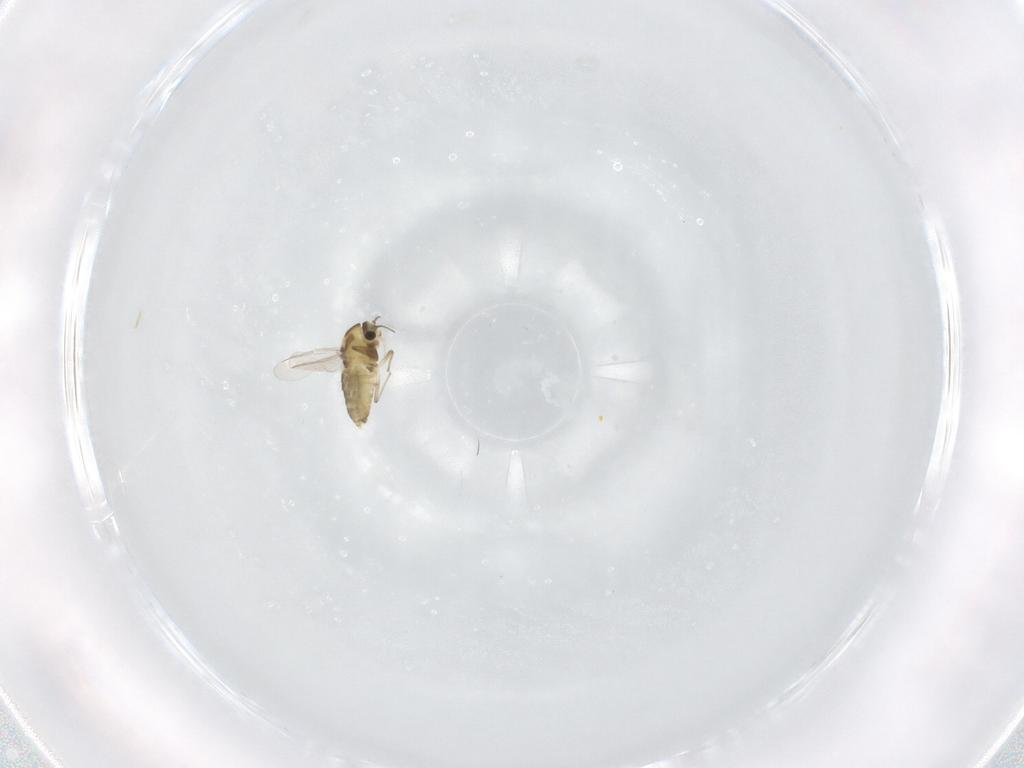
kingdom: Animalia
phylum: Arthropoda
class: Insecta
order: Diptera
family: Chironomidae
